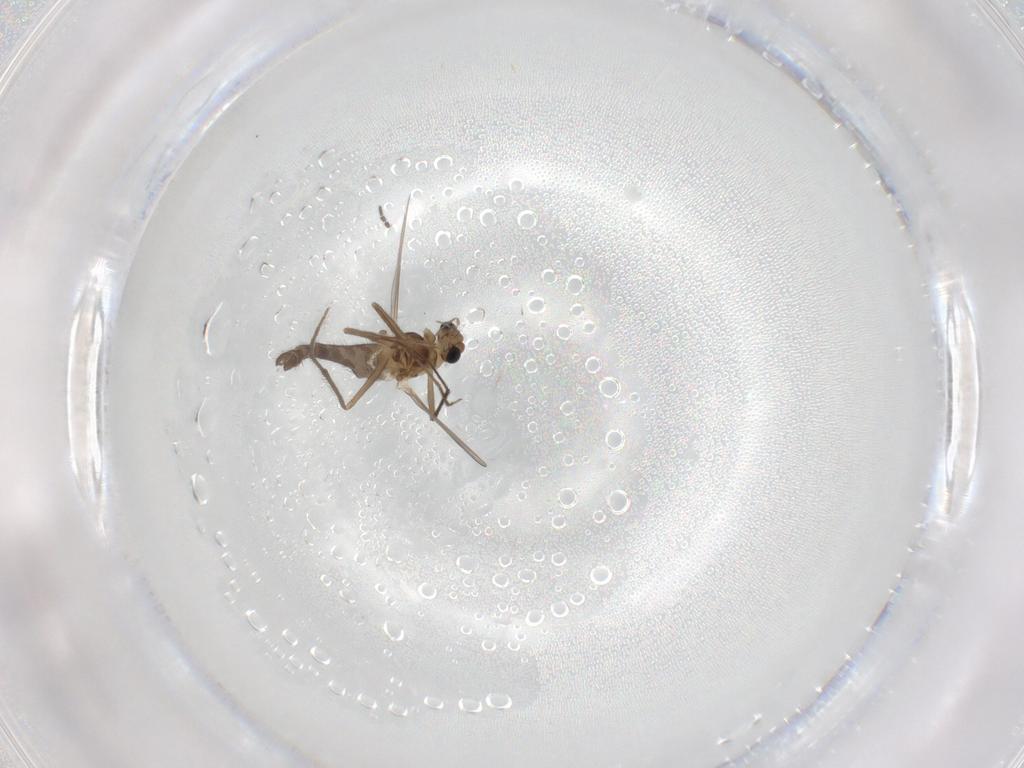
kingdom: Animalia
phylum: Arthropoda
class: Insecta
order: Diptera
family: Chironomidae
